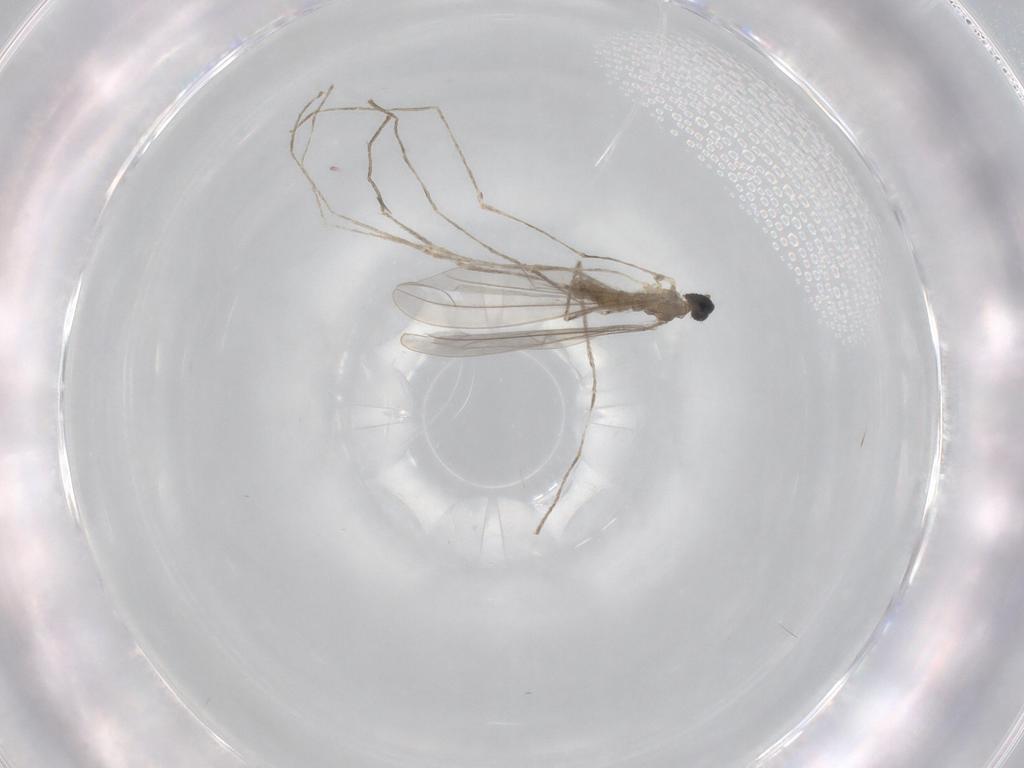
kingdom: Animalia
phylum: Arthropoda
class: Insecta
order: Diptera
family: Cecidomyiidae
